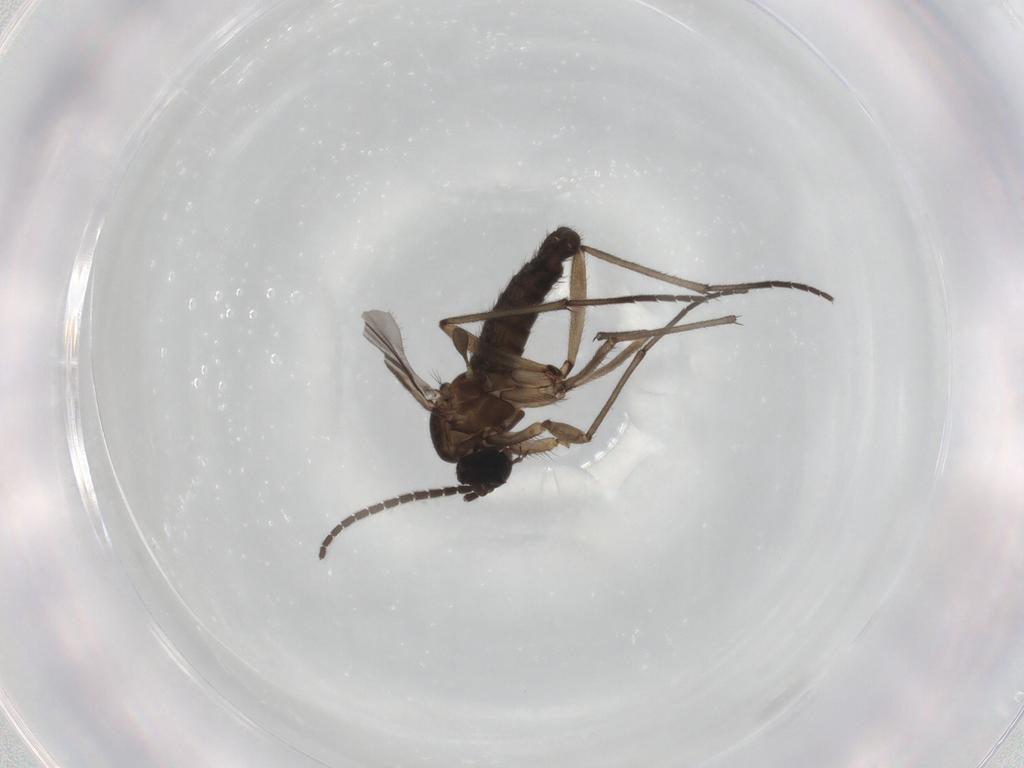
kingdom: Animalia
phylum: Arthropoda
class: Insecta
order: Diptera
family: Sciaridae
